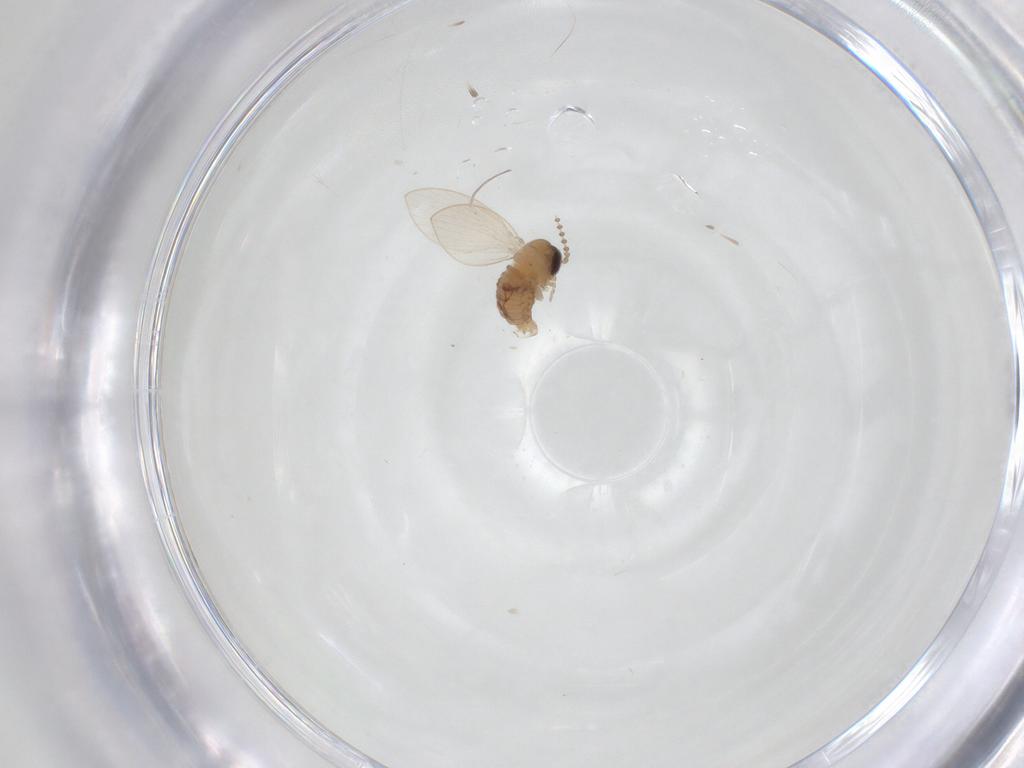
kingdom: Animalia
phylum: Arthropoda
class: Insecta
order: Diptera
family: Psychodidae
